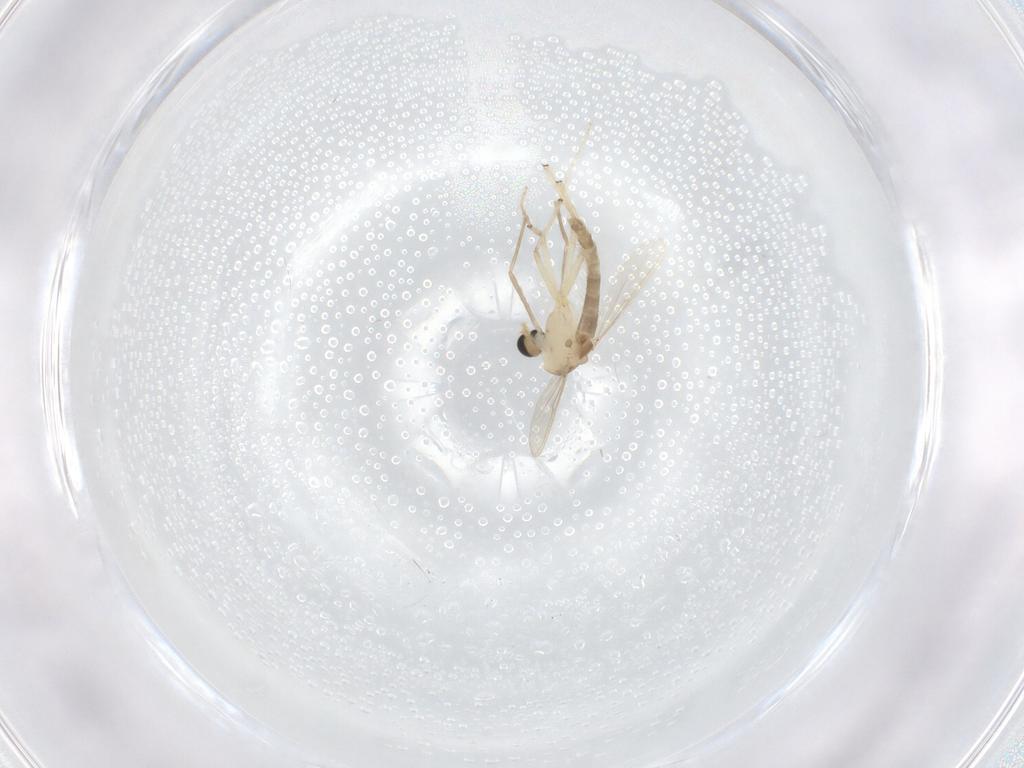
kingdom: Animalia
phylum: Arthropoda
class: Insecta
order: Diptera
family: Chironomidae
